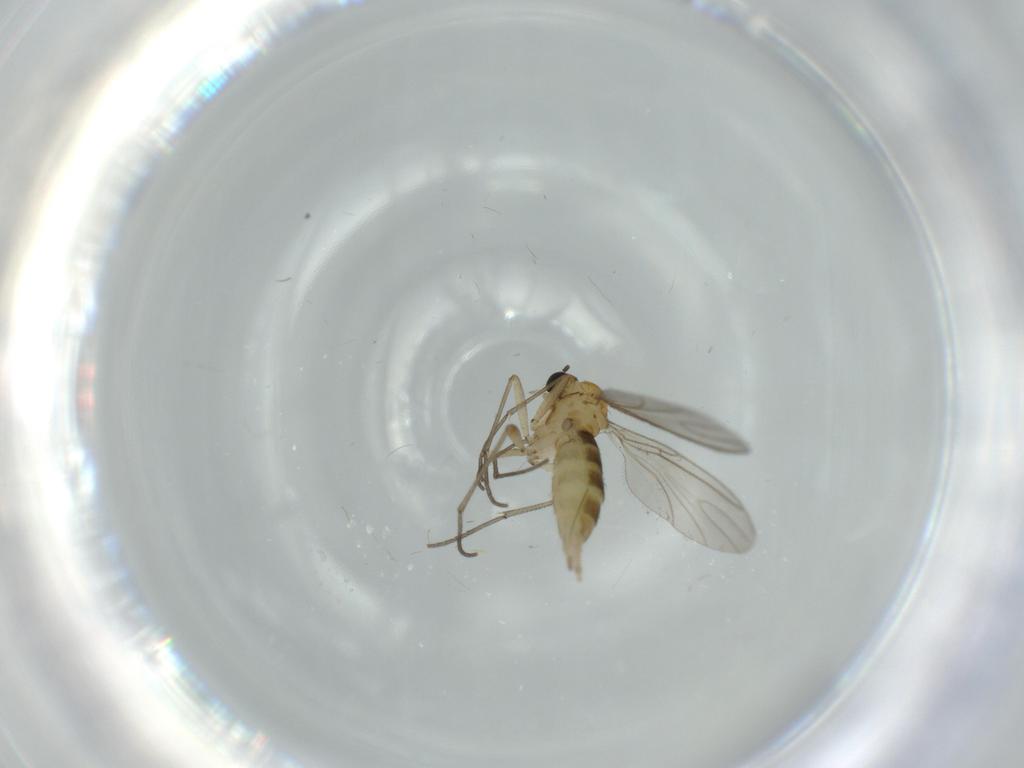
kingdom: Animalia
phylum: Arthropoda
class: Insecta
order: Diptera
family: Sciaridae
